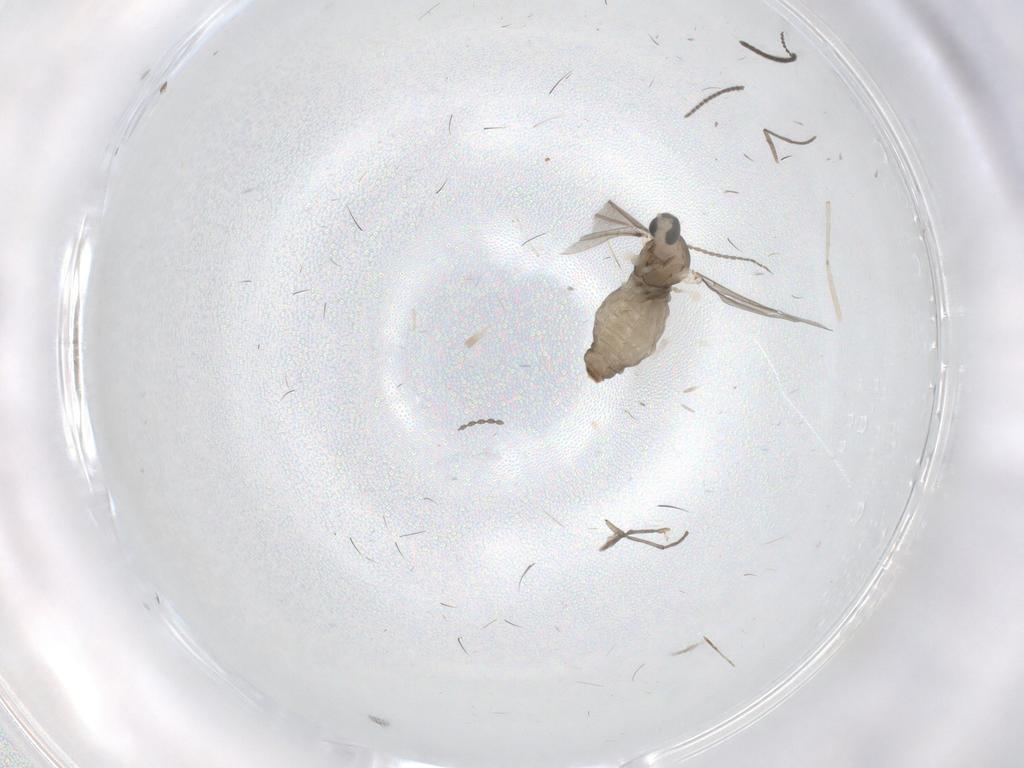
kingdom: Animalia
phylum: Arthropoda
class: Insecta
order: Diptera
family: Cecidomyiidae
